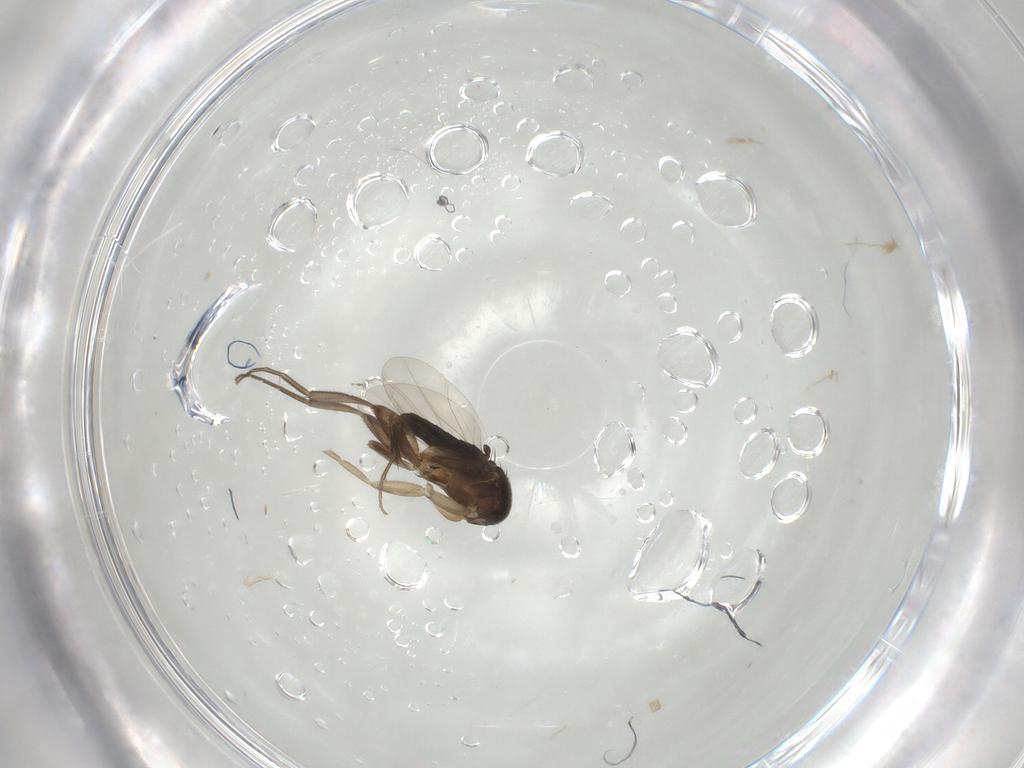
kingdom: Animalia
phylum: Arthropoda
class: Insecta
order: Diptera
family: Phoridae
